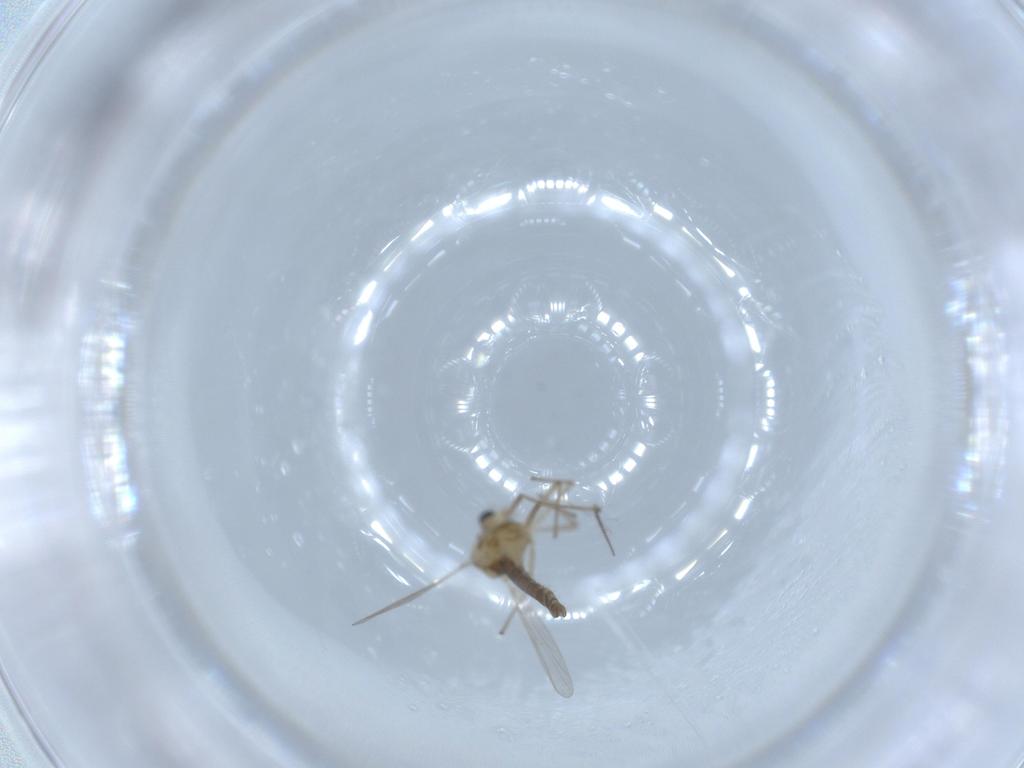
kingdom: Animalia
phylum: Arthropoda
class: Insecta
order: Diptera
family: Chironomidae
